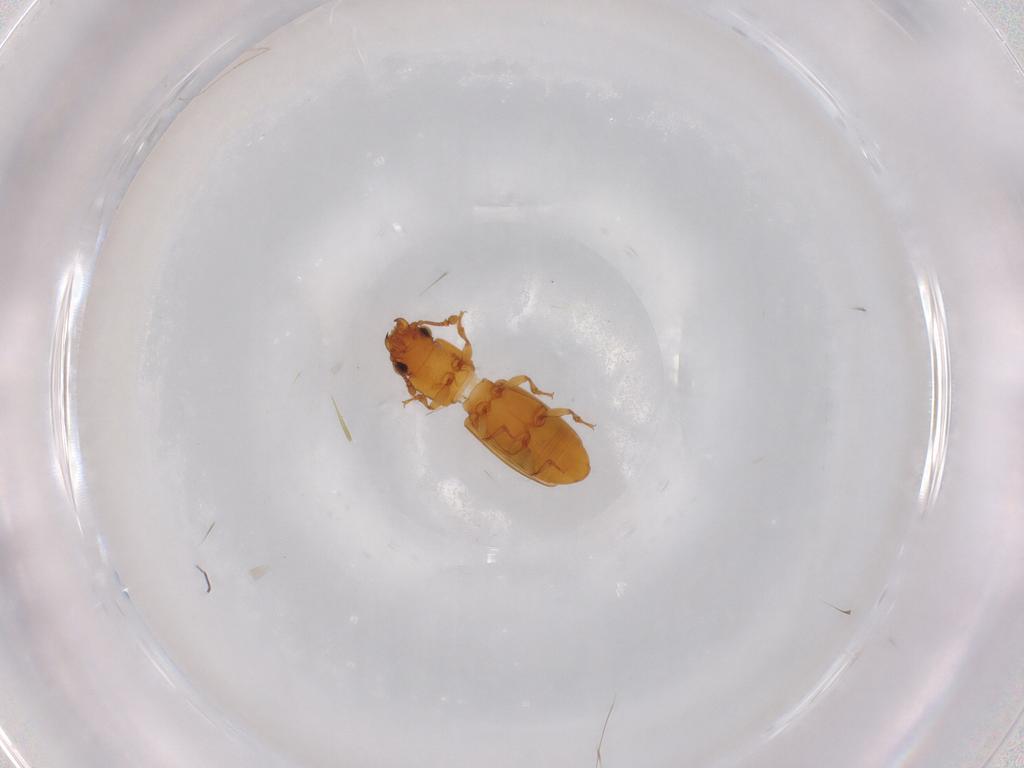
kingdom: Animalia
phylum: Arthropoda
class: Insecta
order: Coleoptera
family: Monotomidae
